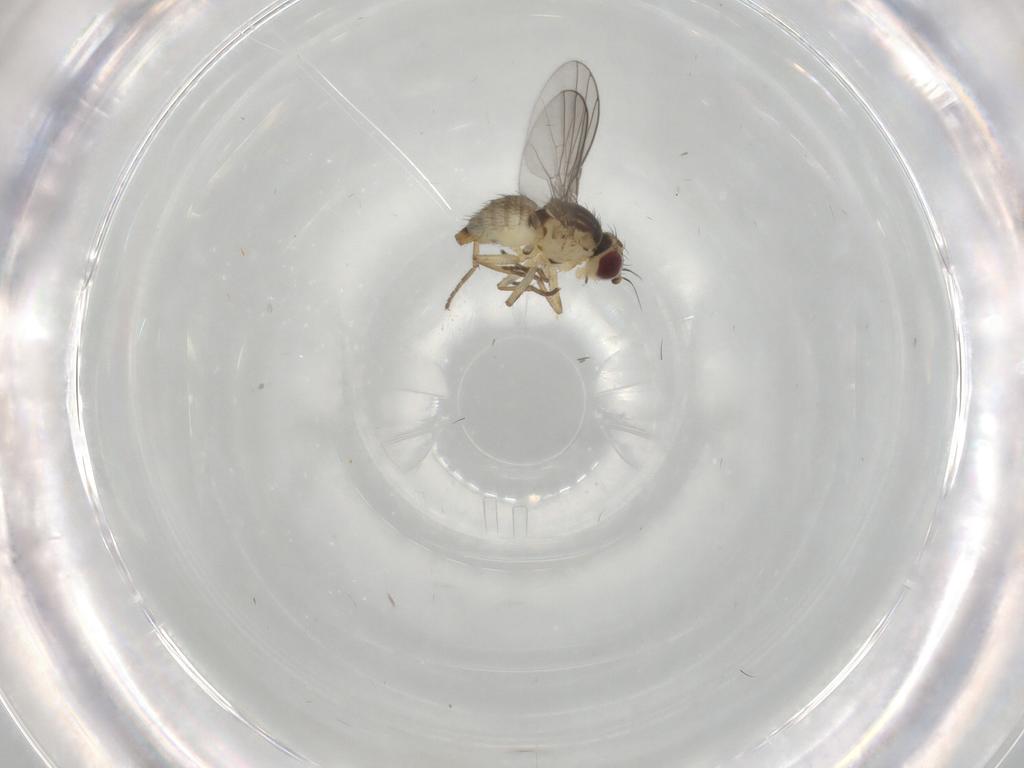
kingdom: Animalia
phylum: Arthropoda
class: Insecta
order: Diptera
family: Agromyzidae
